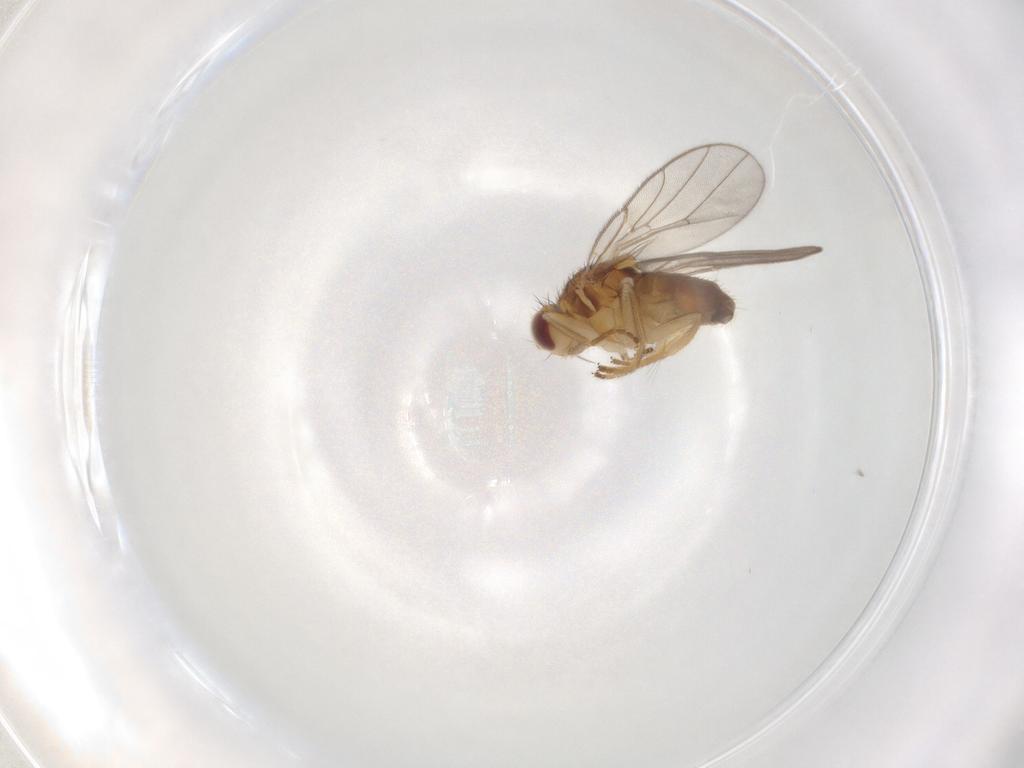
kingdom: Animalia
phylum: Arthropoda
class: Insecta
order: Diptera
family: Chloropidae
